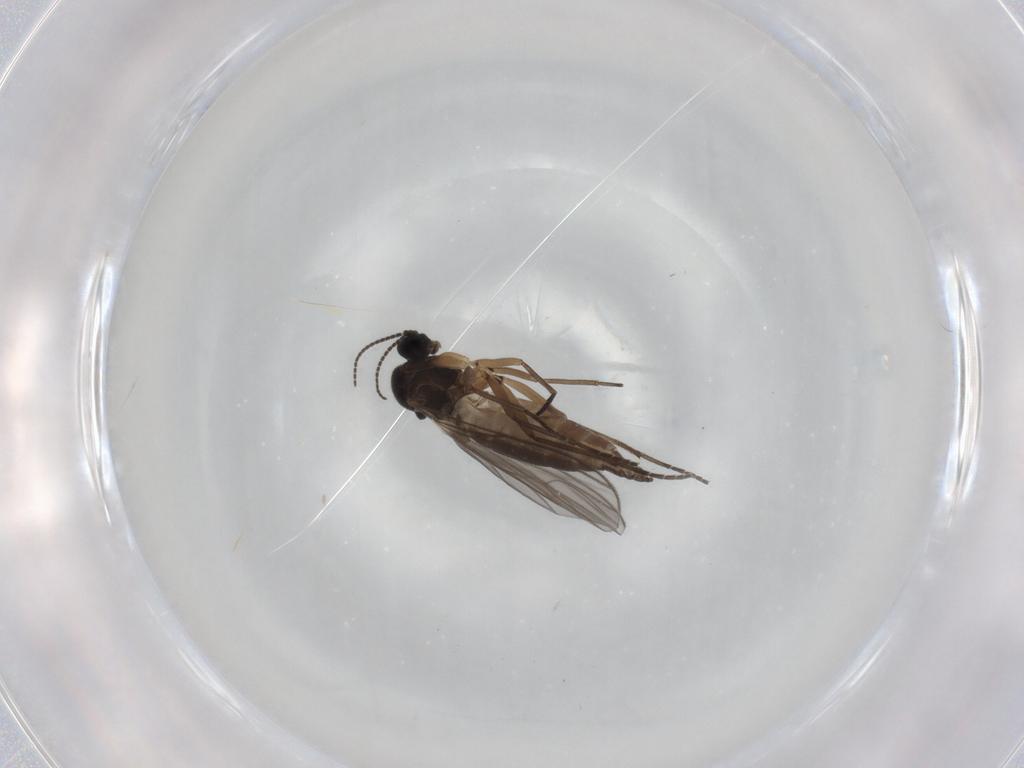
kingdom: Animalia
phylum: Arthropoda
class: Insecta
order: Diptera
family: Sciaridae
